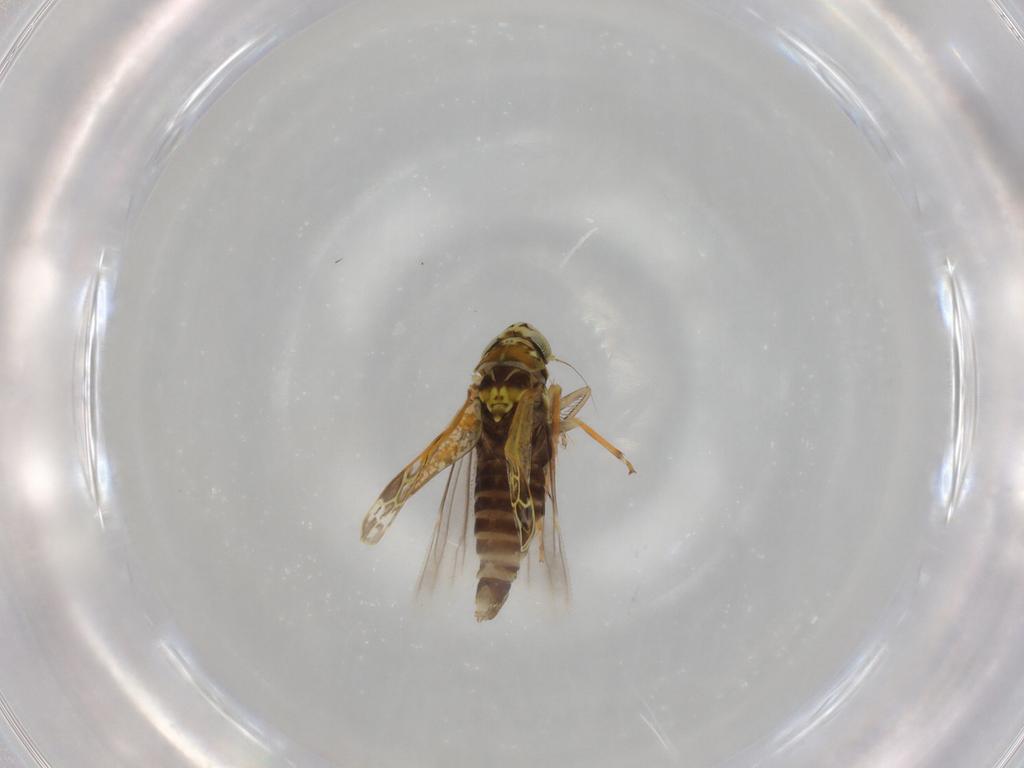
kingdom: Animalia
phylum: Arthropoda
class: Insecta
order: Hemiptera
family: Cicadellidae
